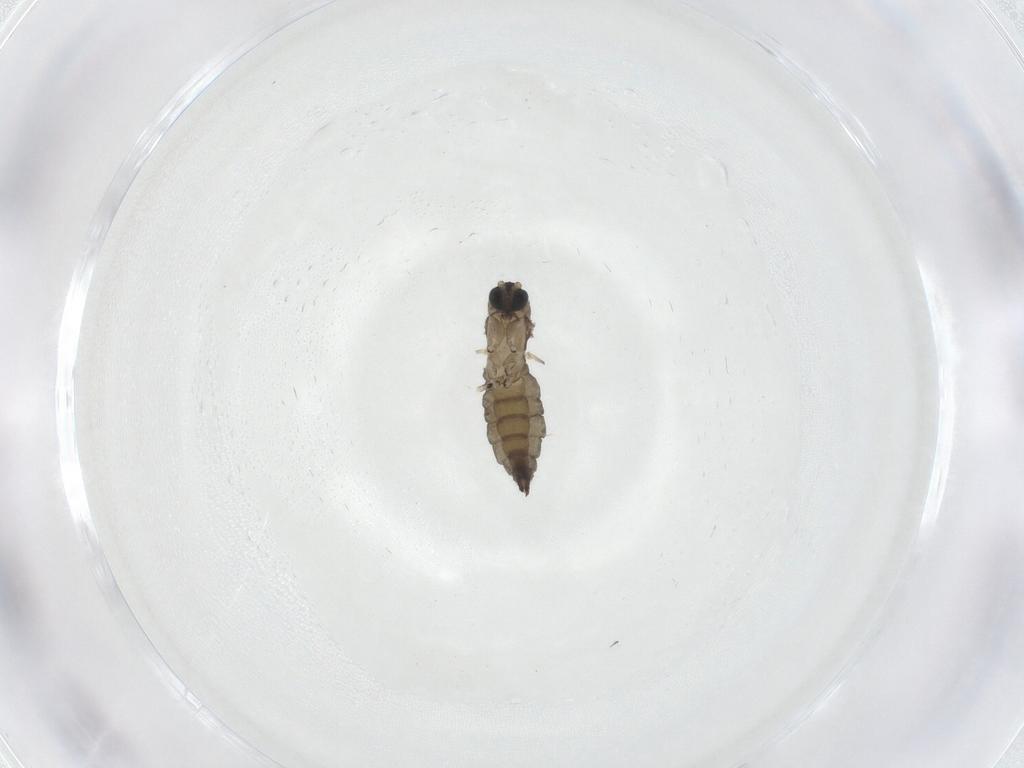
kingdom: Animalia
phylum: Arthropoda
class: Insecta
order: Diptera
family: Sciaridae
